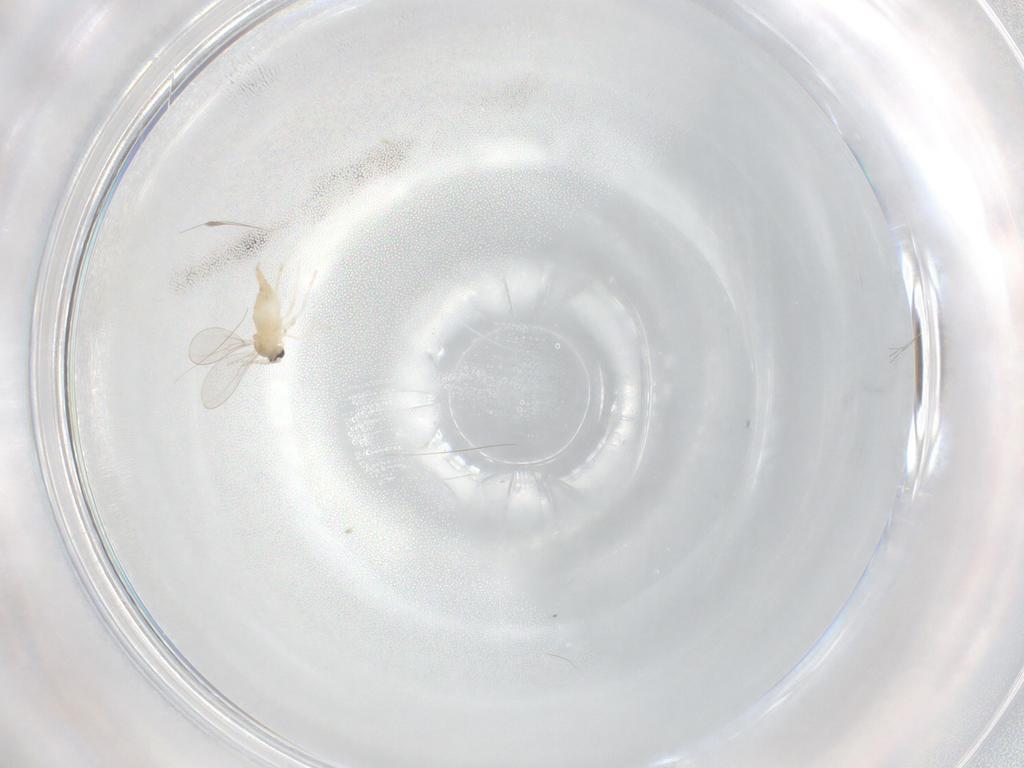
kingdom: Animalia
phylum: Arthropoda
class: Insecta
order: Diptera
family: Cecidomyiidae
